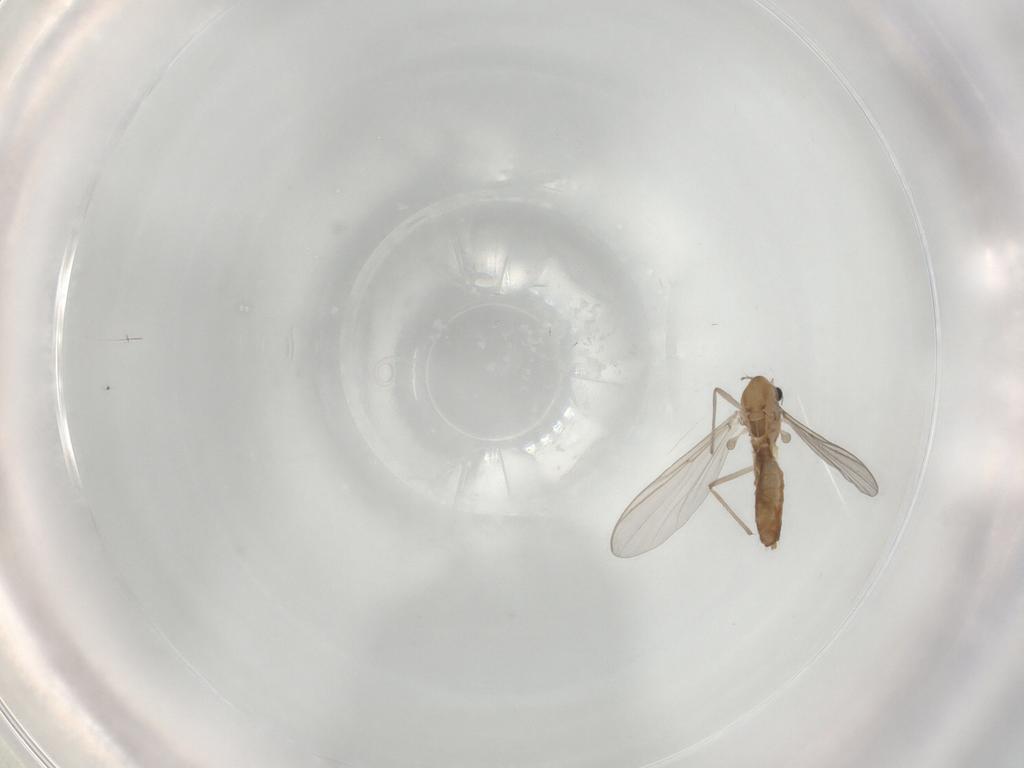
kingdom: Animalia
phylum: Arthropoda
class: Insecta
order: Diptera
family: Chironomidae
